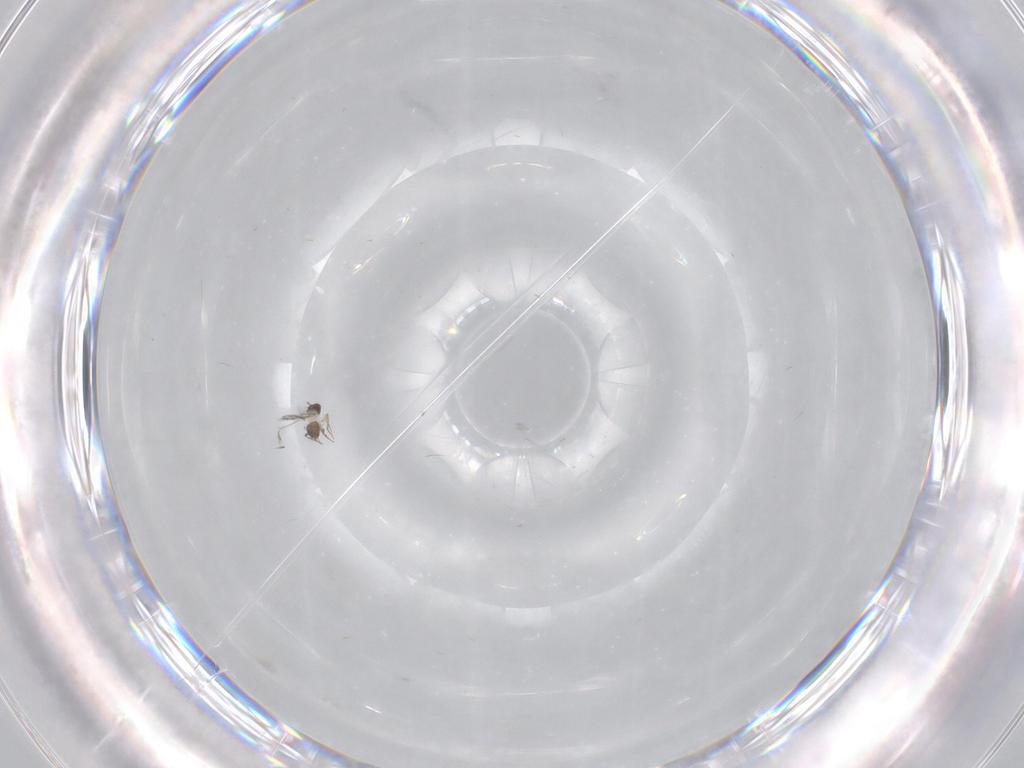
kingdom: Animalia
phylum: Arthropoda
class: Insecta
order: Hymenoptera
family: Mymaridae
